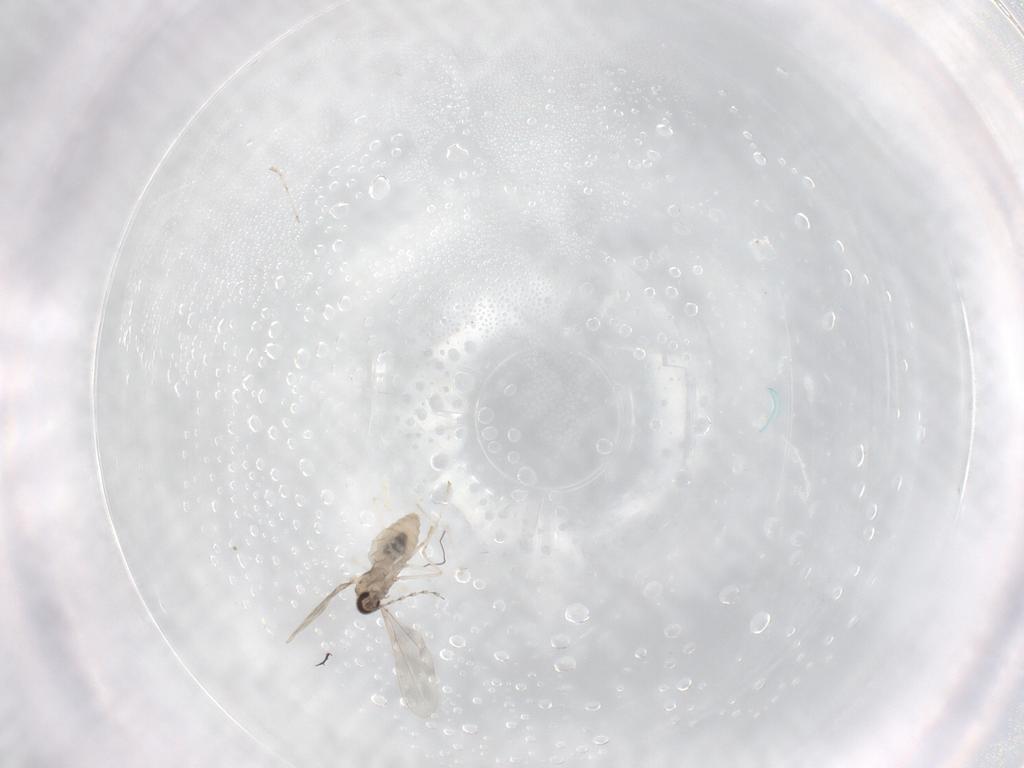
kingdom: Animalia
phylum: Arthropoda
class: Insecta
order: Diptera
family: Cecidomyiidae
